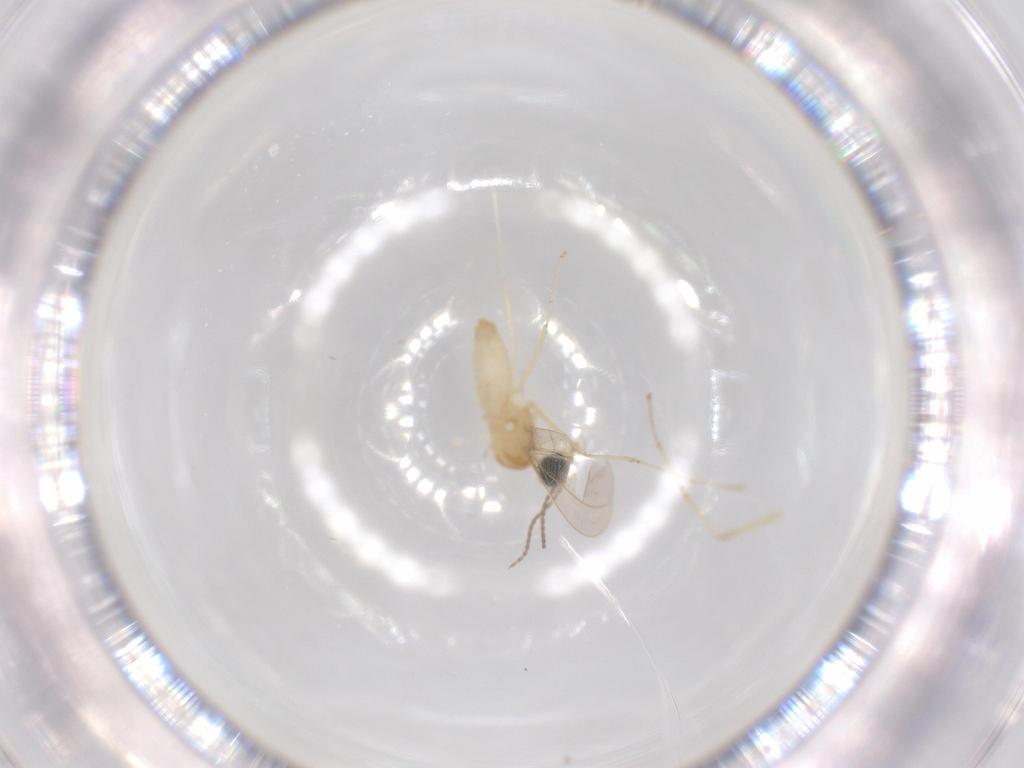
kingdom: Animalia
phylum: Arthropoda
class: Insecta
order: Diptera
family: Cecidomyiidae
